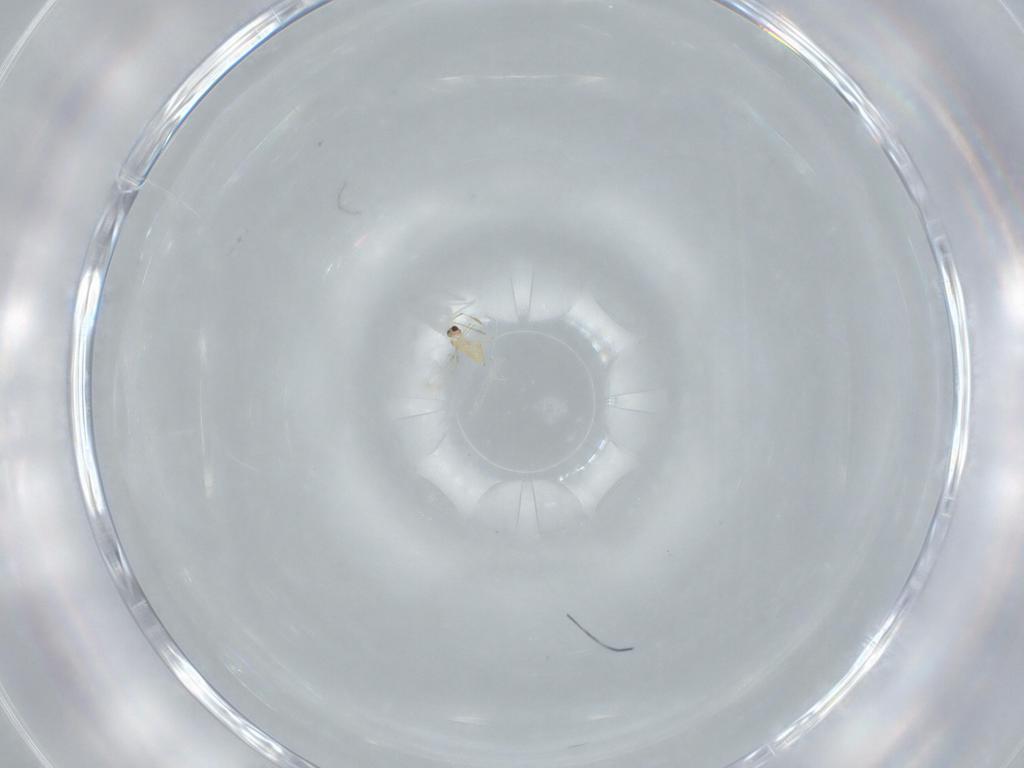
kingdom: Animalia
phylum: Arthropoda
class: Insecta
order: Hymenoptera
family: Mymaridae
